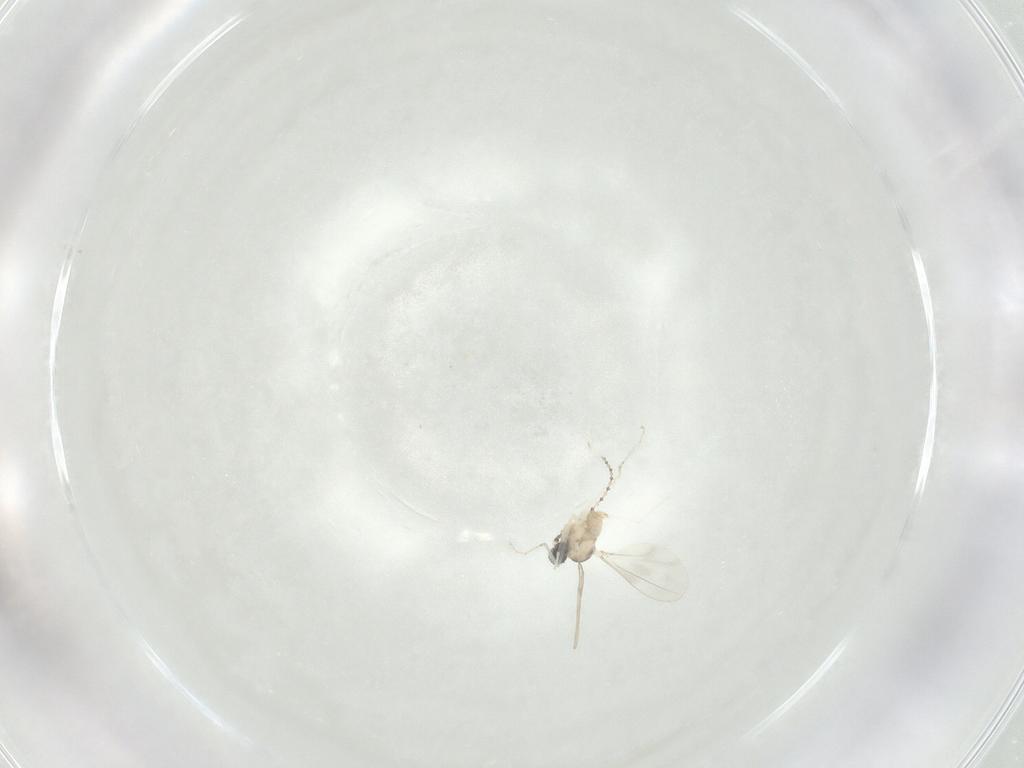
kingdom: Animalia
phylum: Arthropoda
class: Insecta
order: Diptera
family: Cecidomyiidae
